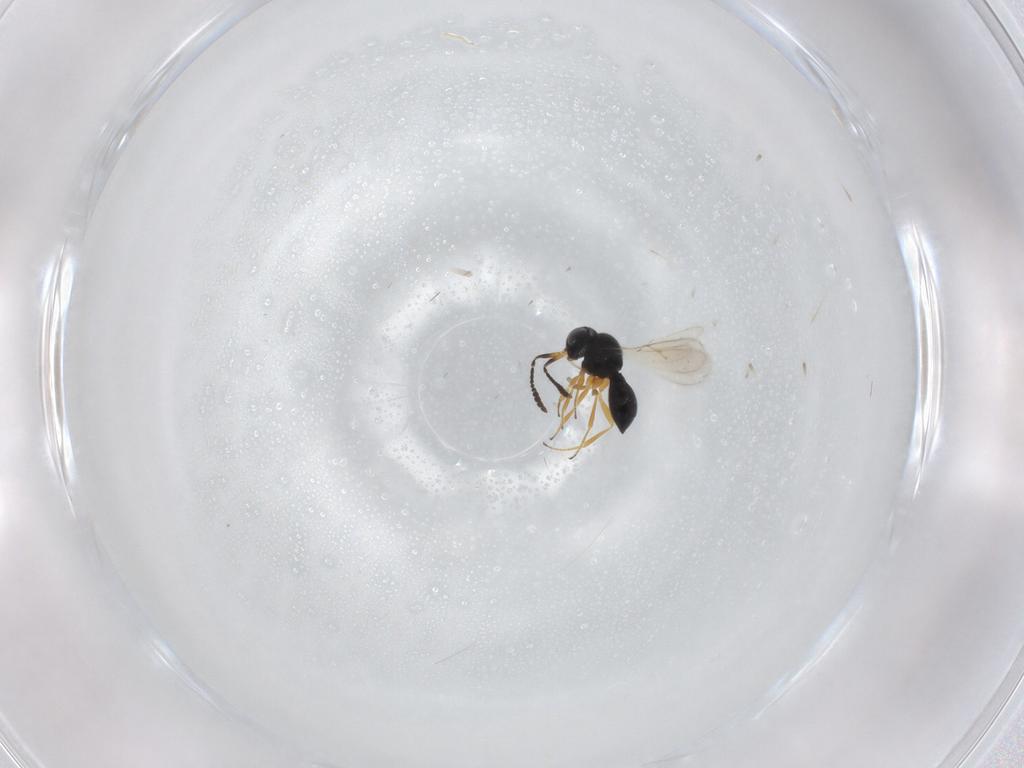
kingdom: Animalia
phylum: Arthropoda
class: Insecta
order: Hymenoptera
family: Scelionidae
